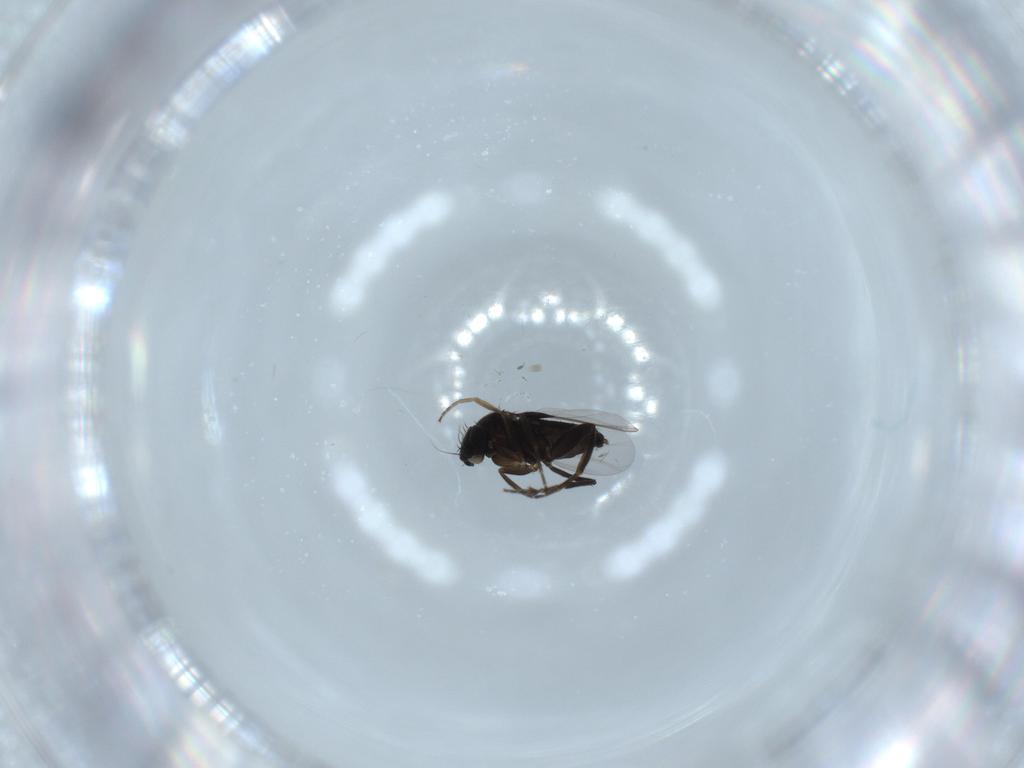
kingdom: Animalia
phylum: Arthropoda
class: Insecta
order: Diptera
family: Phoridae
